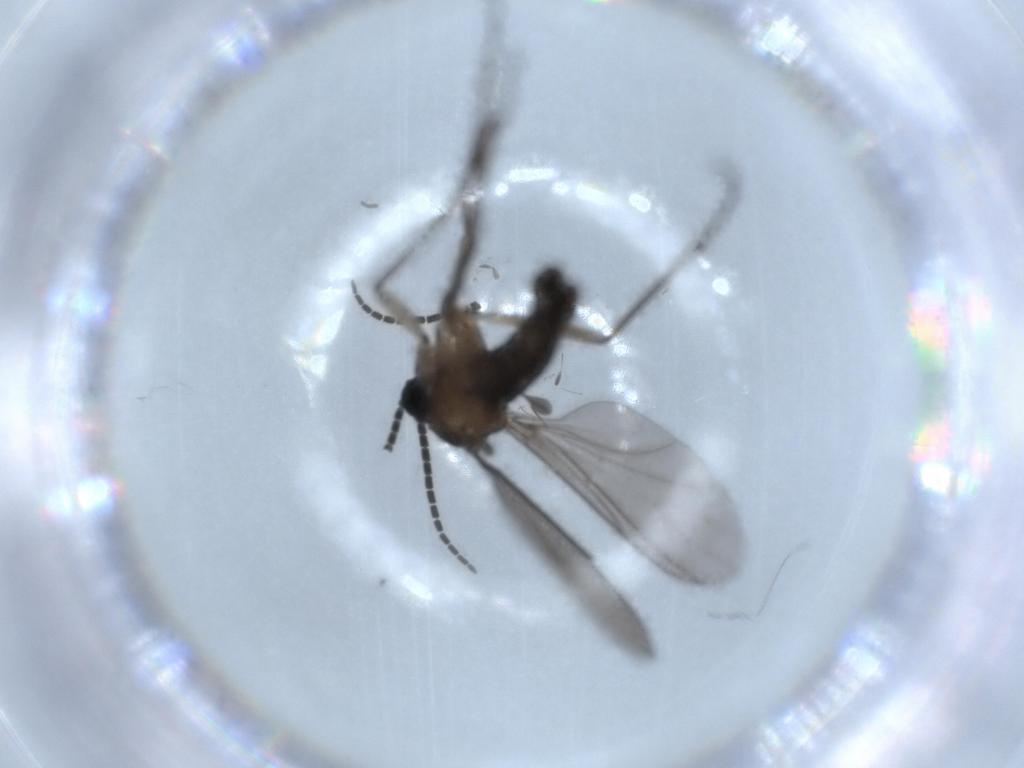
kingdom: Animalia
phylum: Arthropoda
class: Insecta
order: Diptera
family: Sciaridae
